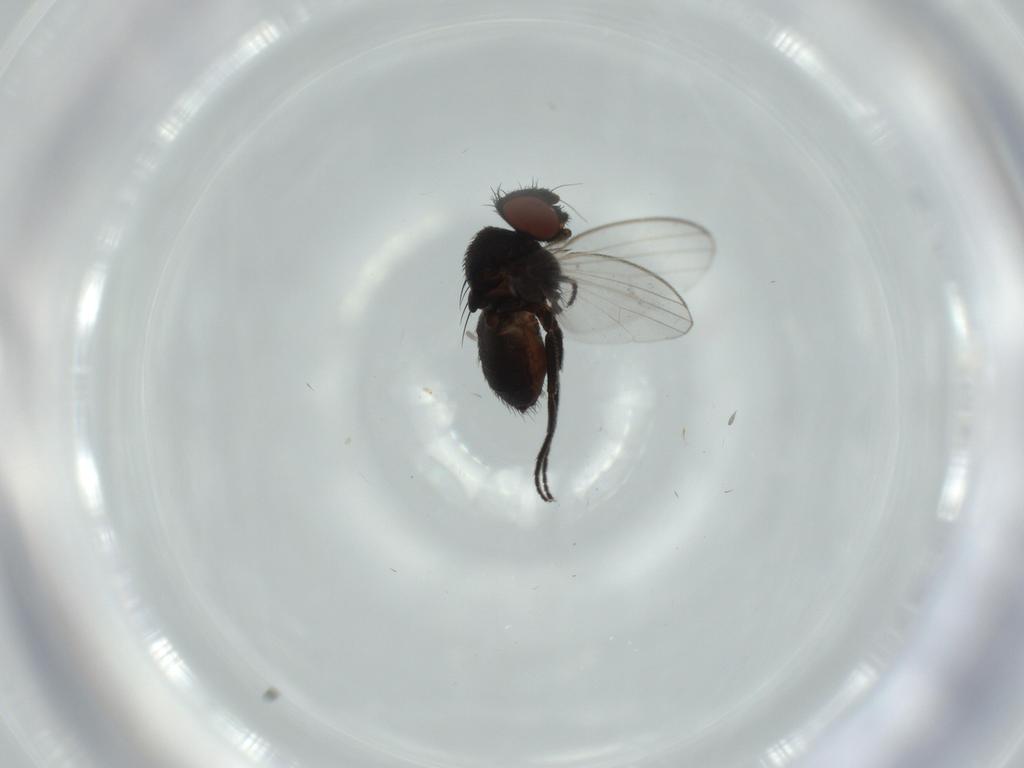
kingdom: Animalia
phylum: Arthropoda
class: Insecta
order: Diptera
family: Milichiidae
